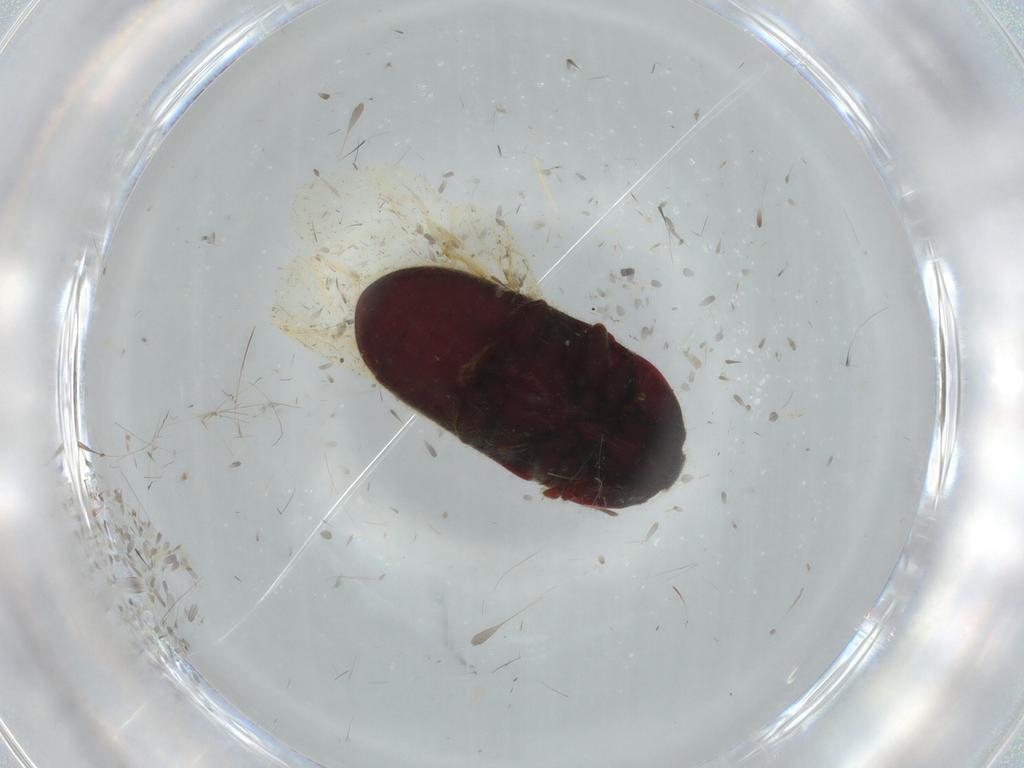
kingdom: Animalia
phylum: Arthropoda
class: Insecta
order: Coleoptera
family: Throscidae
